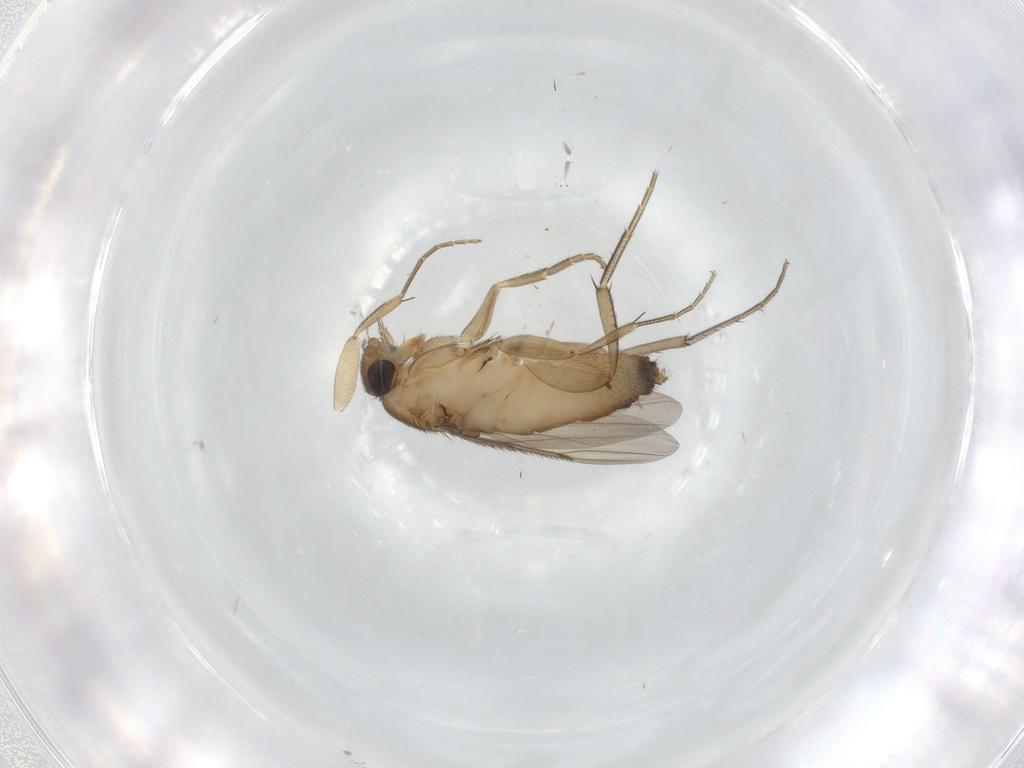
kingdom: Animalia
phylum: Arthropoda
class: Insecta
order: Diptera
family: Phoridae
